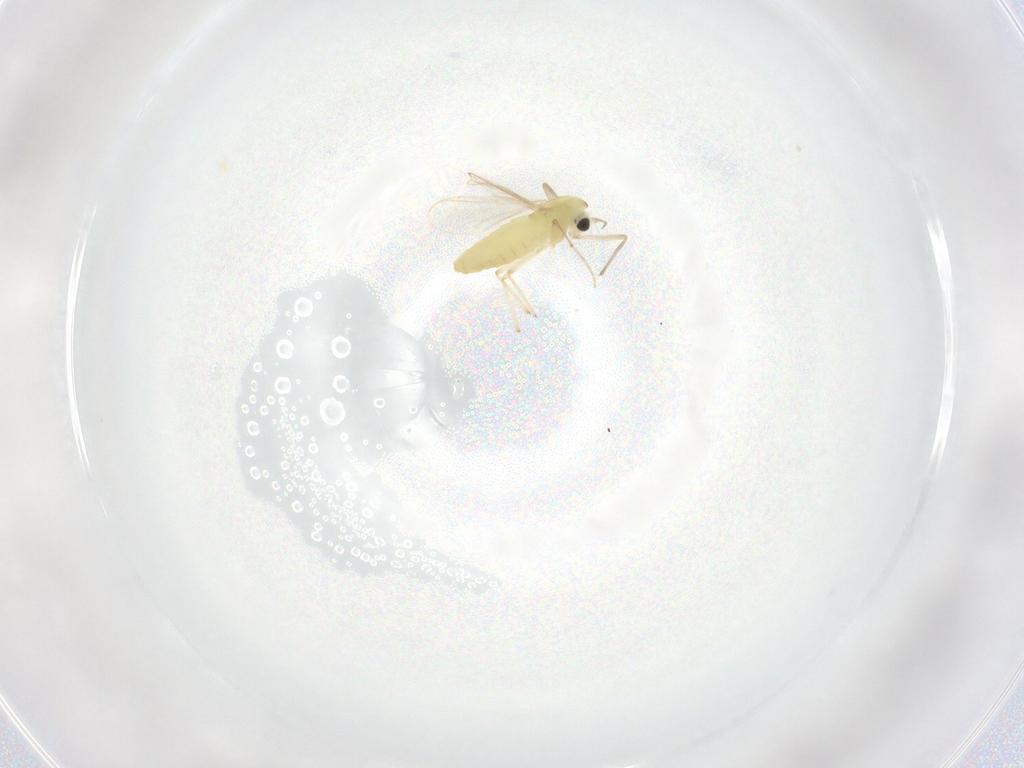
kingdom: Animalia
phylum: Arthropoda
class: Insecta
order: Diptera
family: Chironomidae
